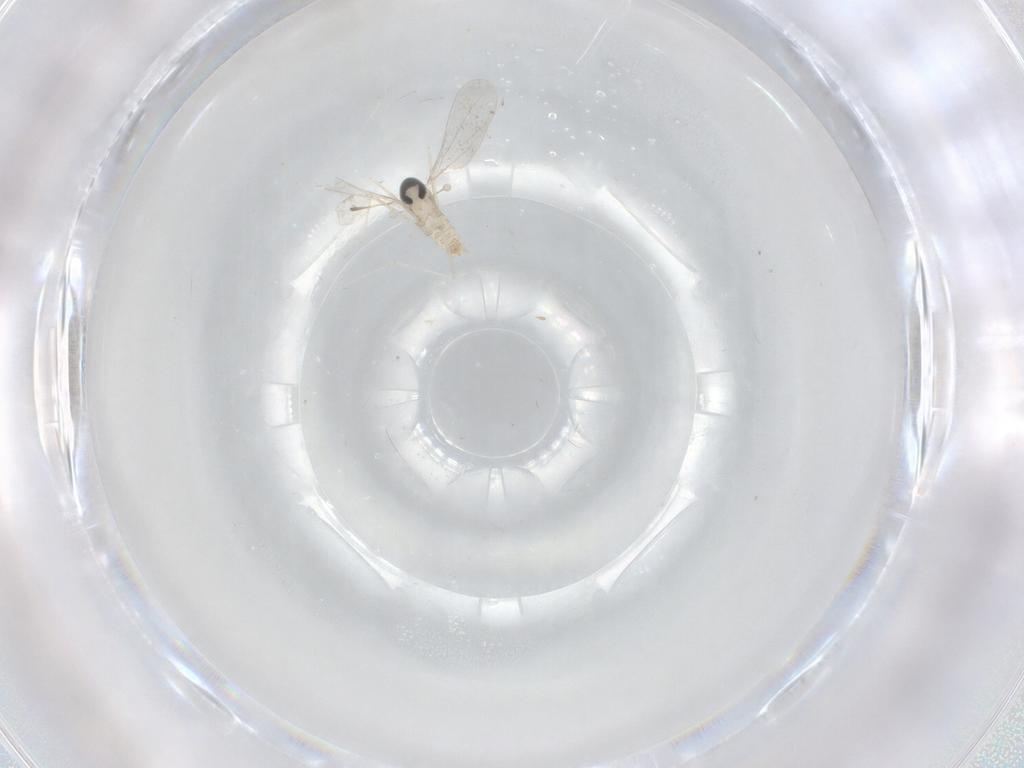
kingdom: Animalia
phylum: Arthropoda
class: Insecta
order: Diptera
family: Cecidomyiidae
